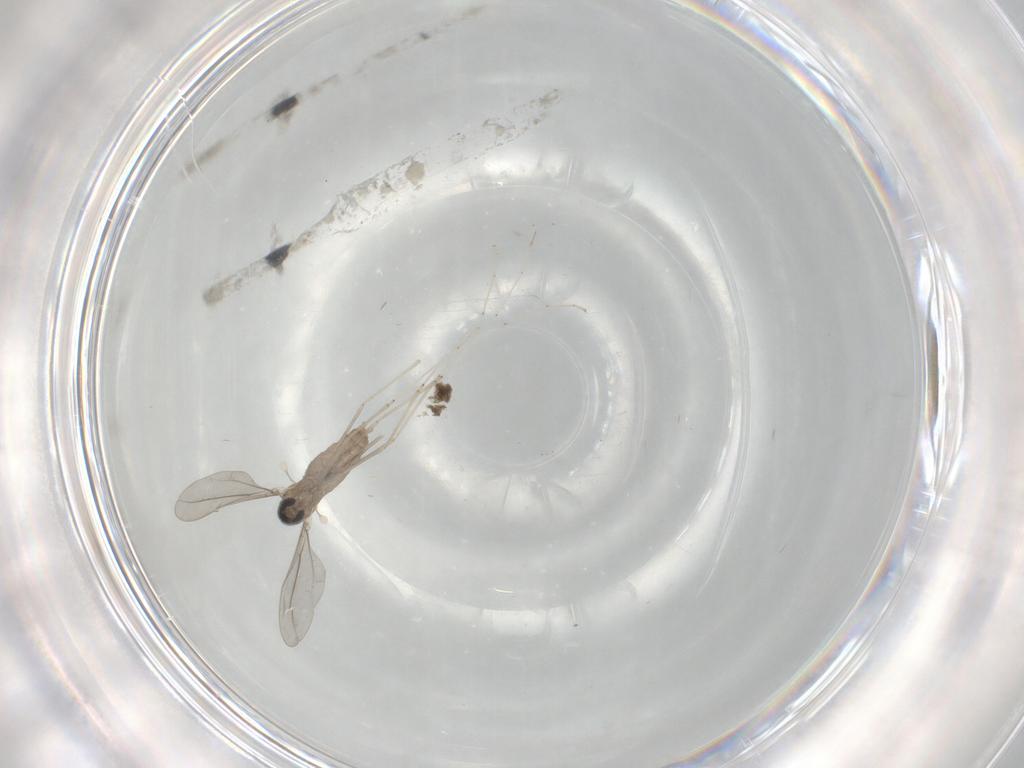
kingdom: Animalia
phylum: Arthropoda
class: Insecta
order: Diptera
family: Cecidomyiidae
